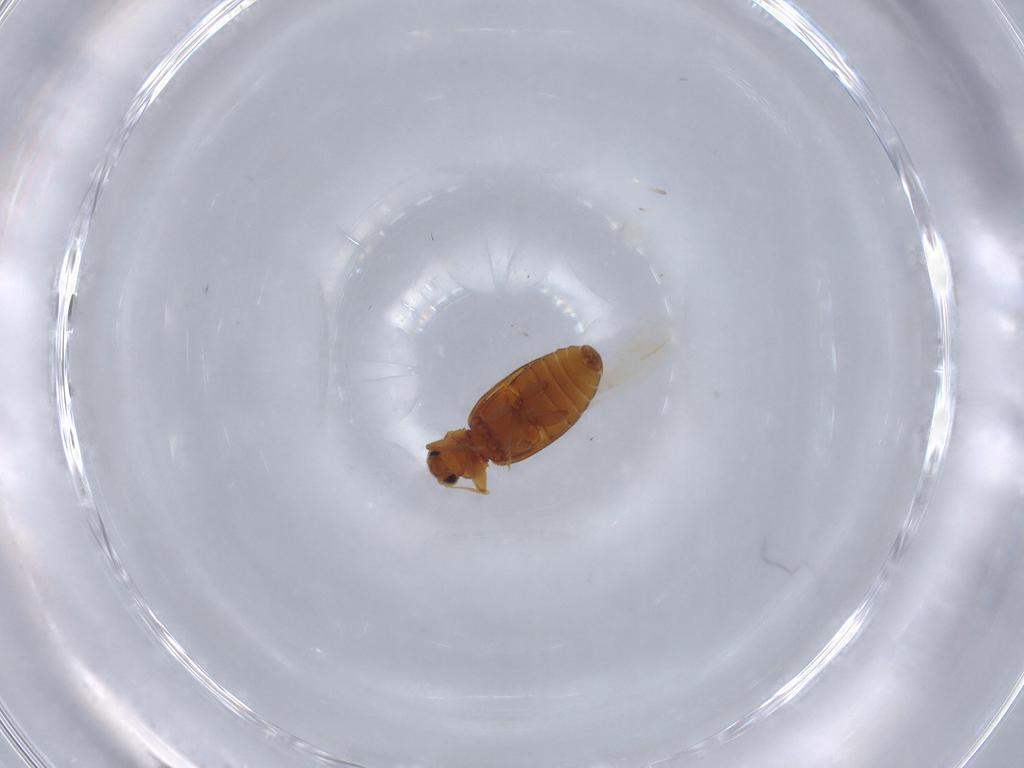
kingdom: Animalia
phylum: Arthropoda
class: Insecta
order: Coleoptera
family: Latridiidae
